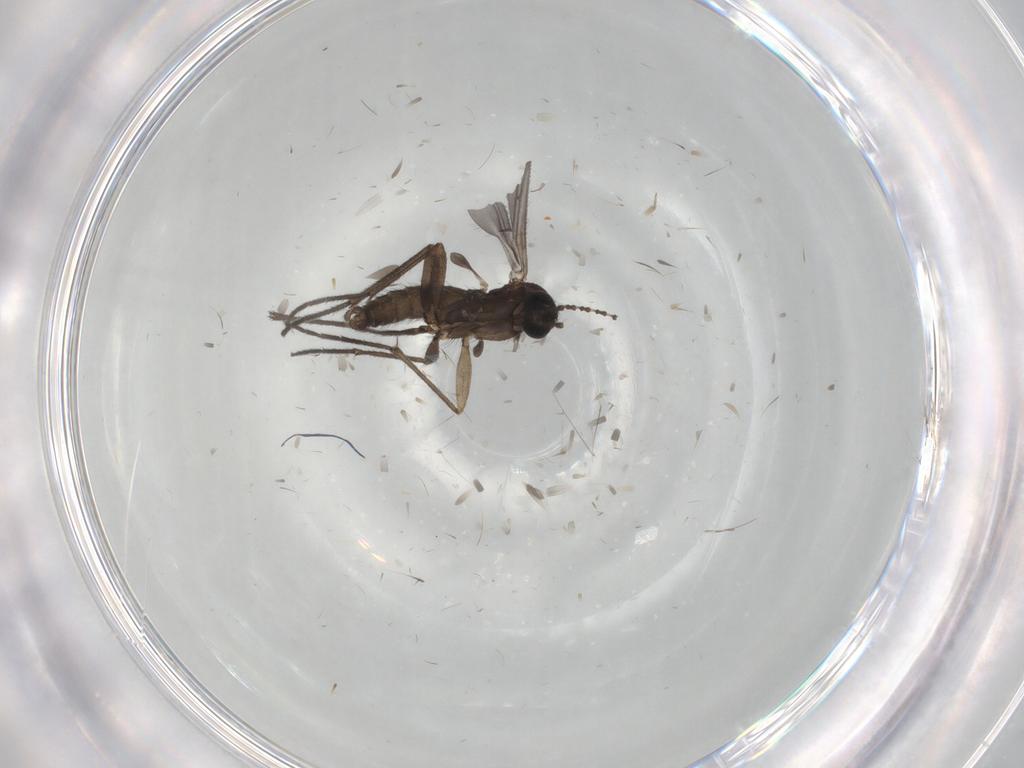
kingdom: Animalia
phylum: Arthropoda
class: Insecta
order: Diptera
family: Sciaridae
